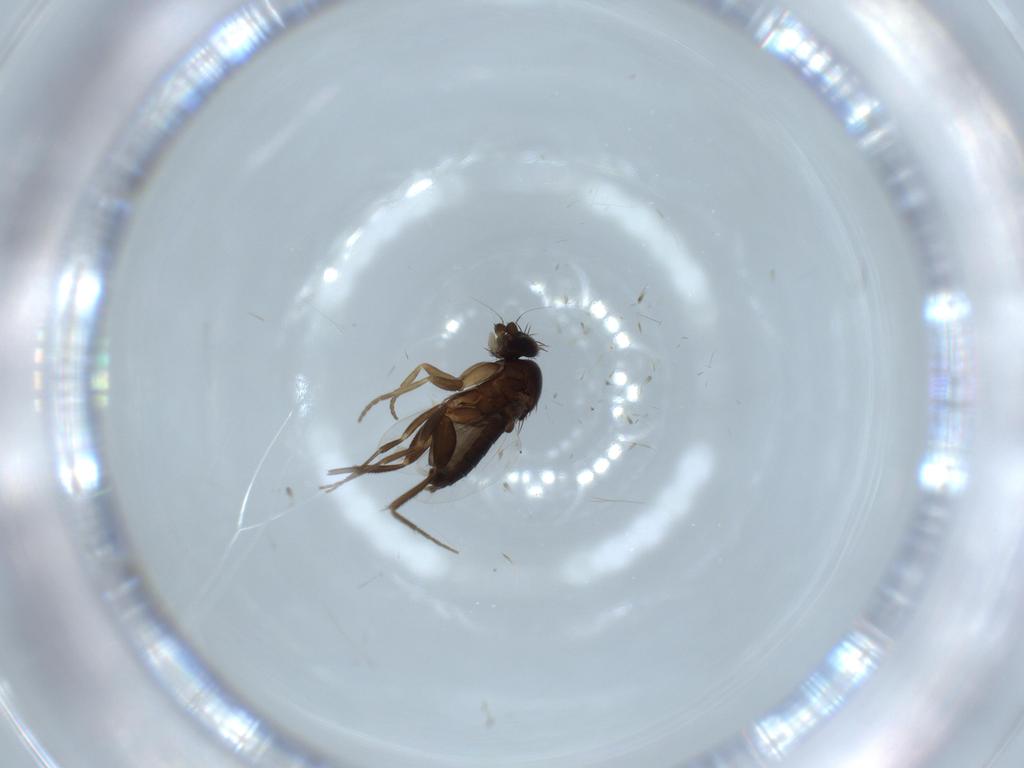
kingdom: Animalia
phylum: Arthropoda
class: Insecta
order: Diptera
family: Phoridae
